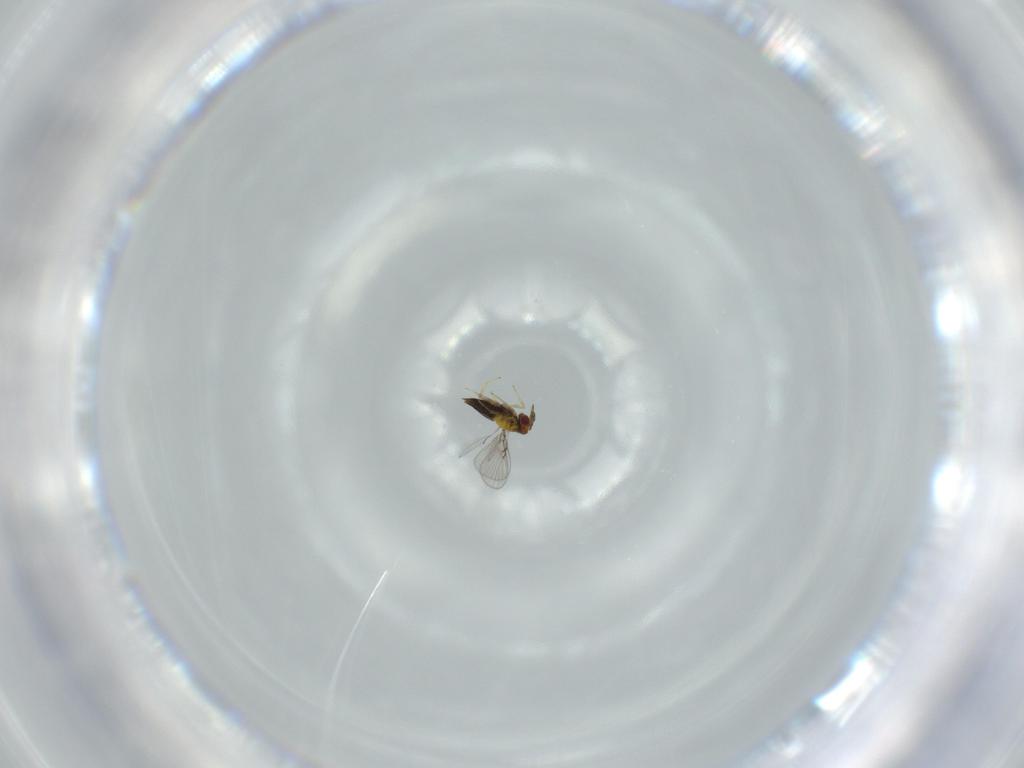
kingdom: Animalia
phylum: Arthropoda
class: Insecta
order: Hymenoptera
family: Trichogrammatidae
